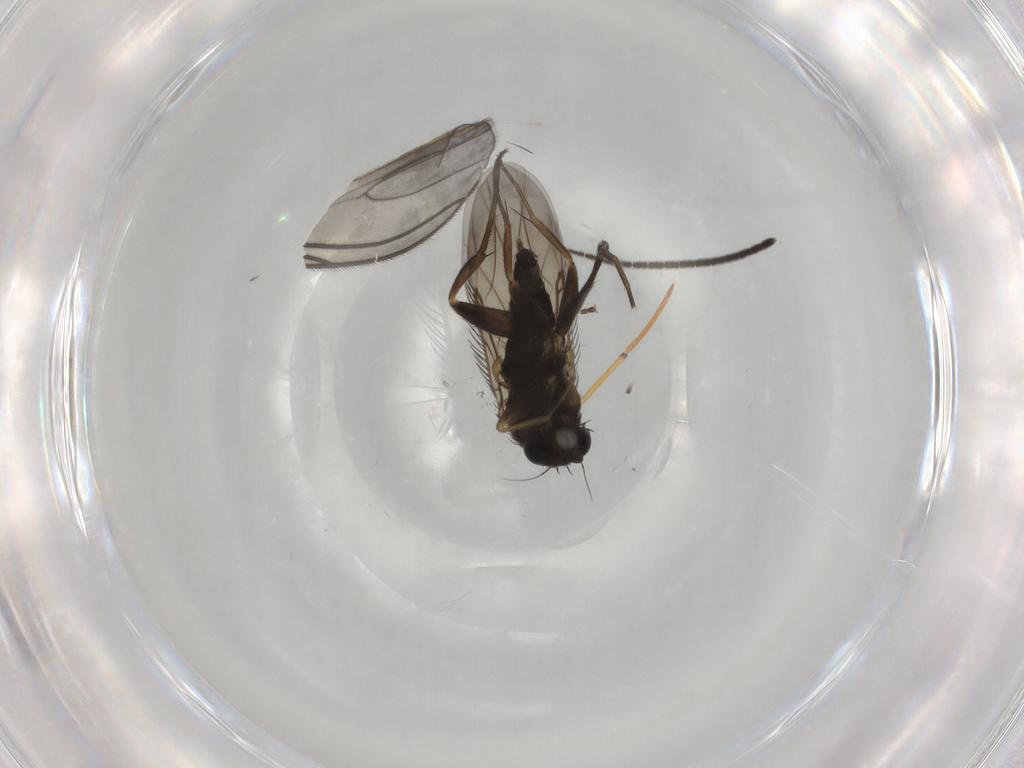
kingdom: Animalia
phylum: Arthropoda
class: Insecta
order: Diptera
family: Phoridae
